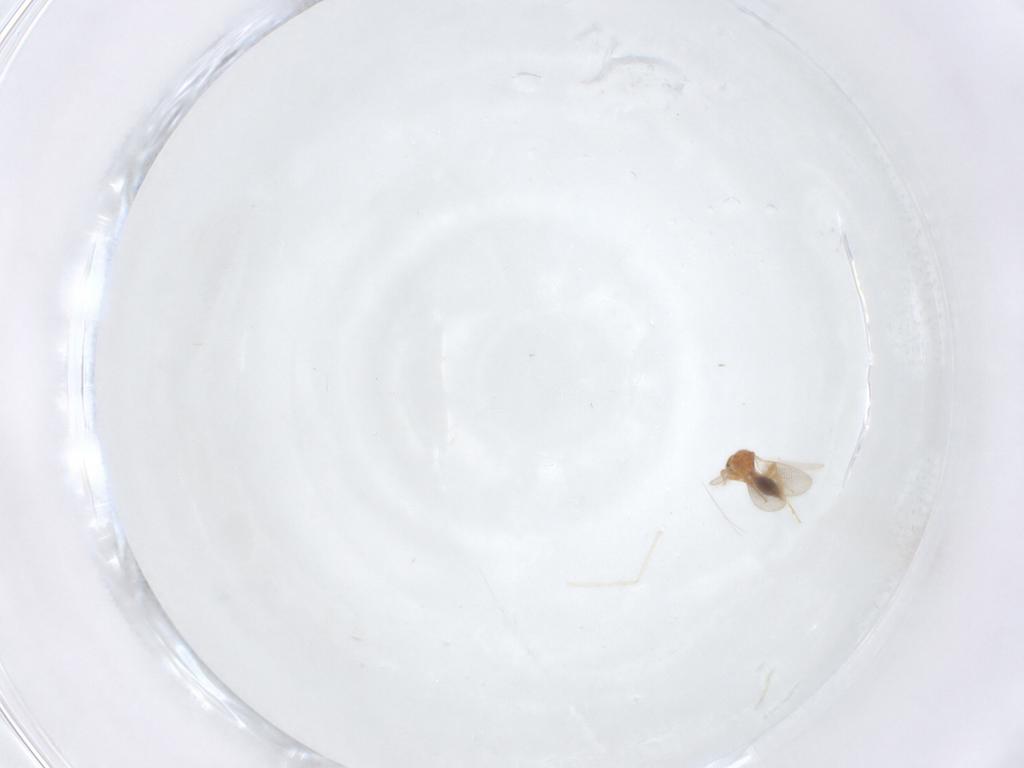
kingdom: Animalia
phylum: Arthropoda
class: Insecta
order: Diptera
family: Cecidomyiidae
